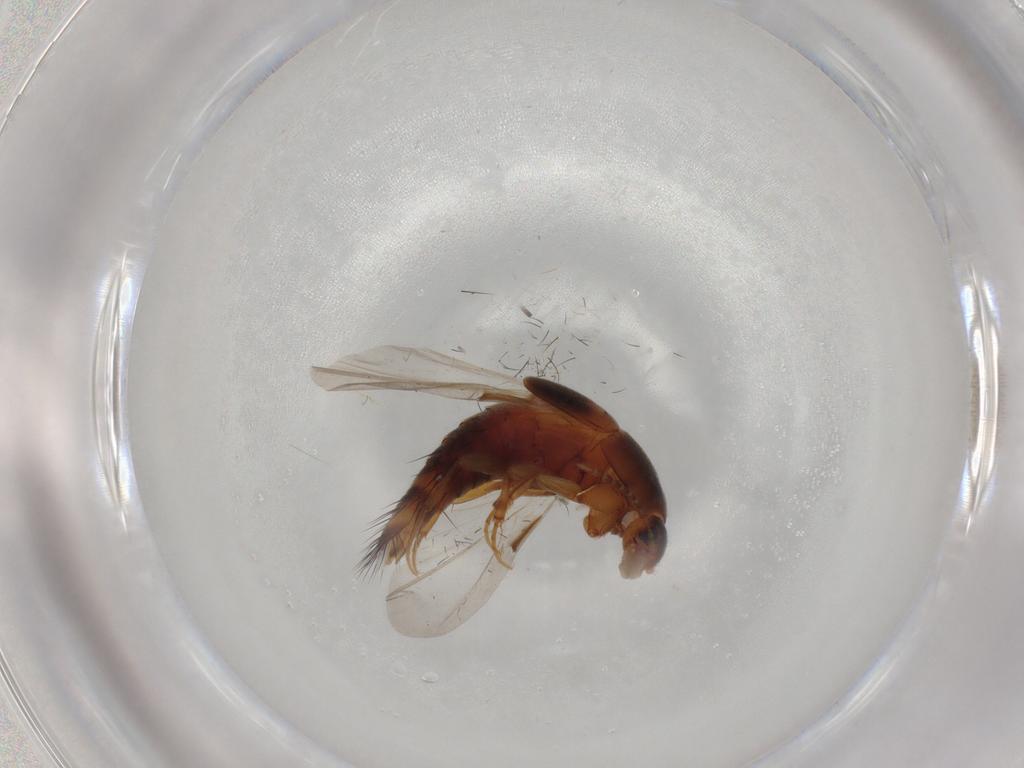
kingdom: Animalia
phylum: Arthropoda
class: Insecta
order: Coleoptera
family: Staphylinidae
